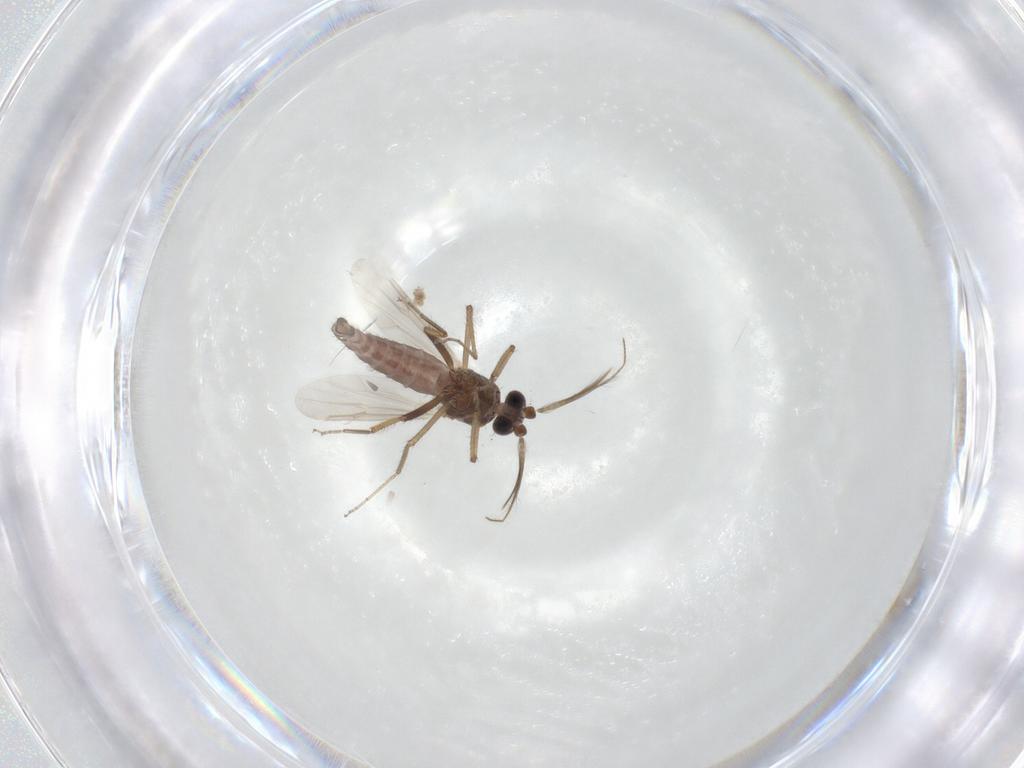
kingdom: Animalia
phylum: Arthropoda
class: Insecta
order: Diptera
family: Ceratopogonidae
